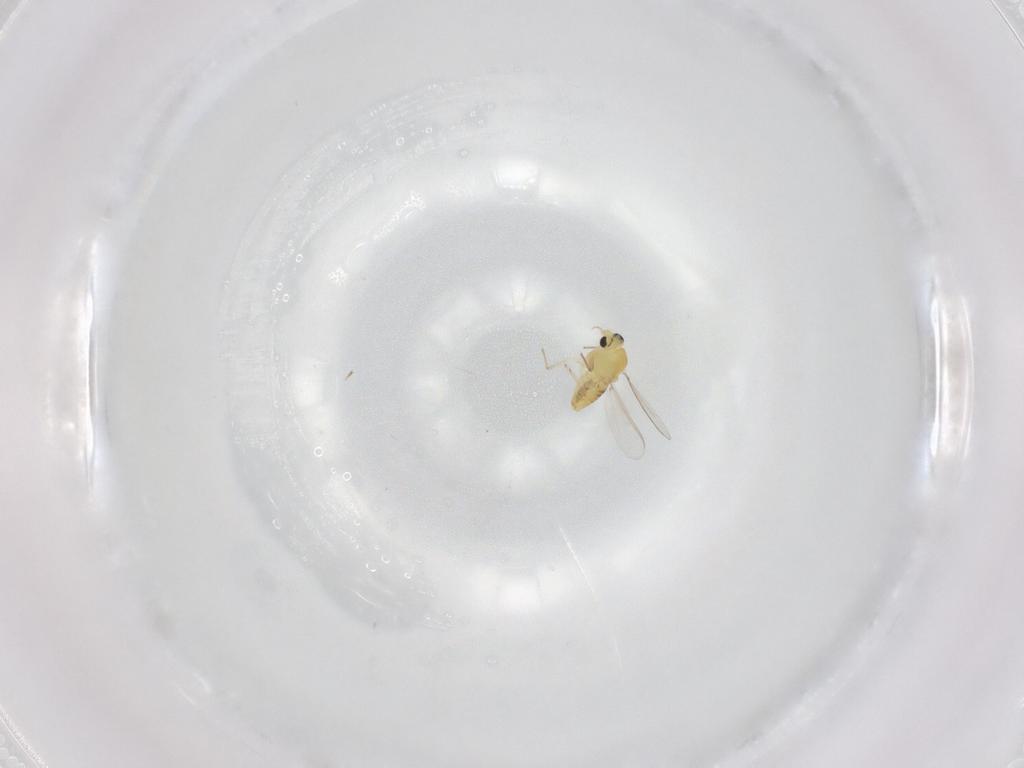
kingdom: Animalia
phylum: Arthropoda
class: Insecta
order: Diptera
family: Chironomidae
